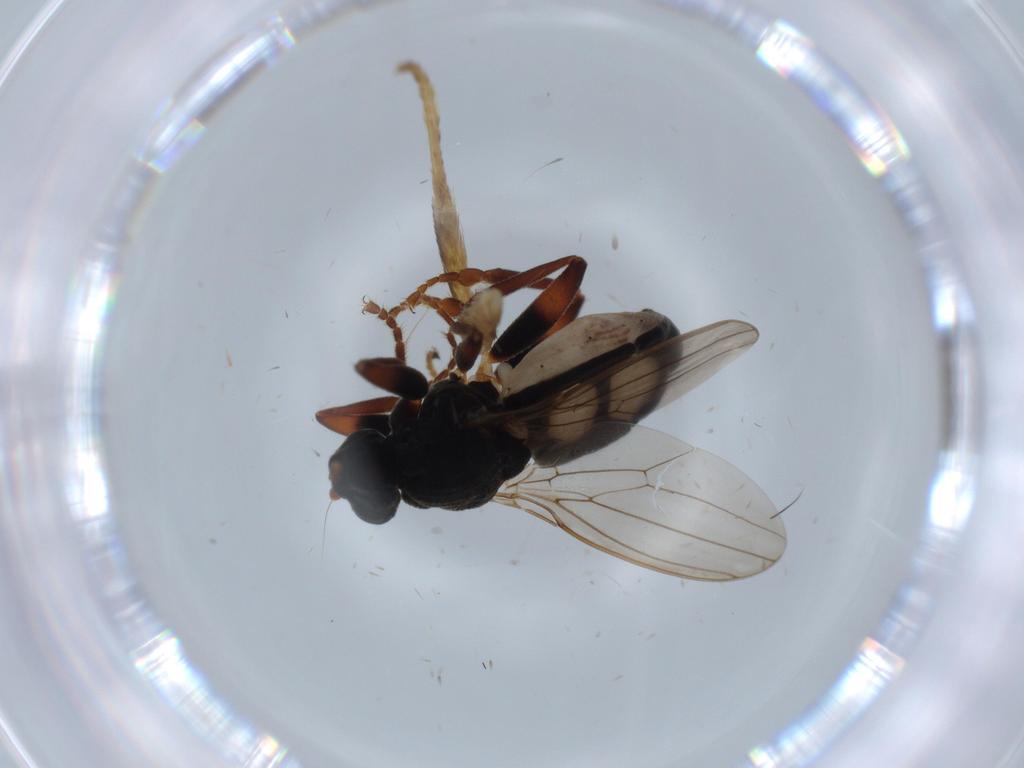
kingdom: Animalia
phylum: Arthropoda
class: Insecta
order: Diptera
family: Sphaeroceridae
